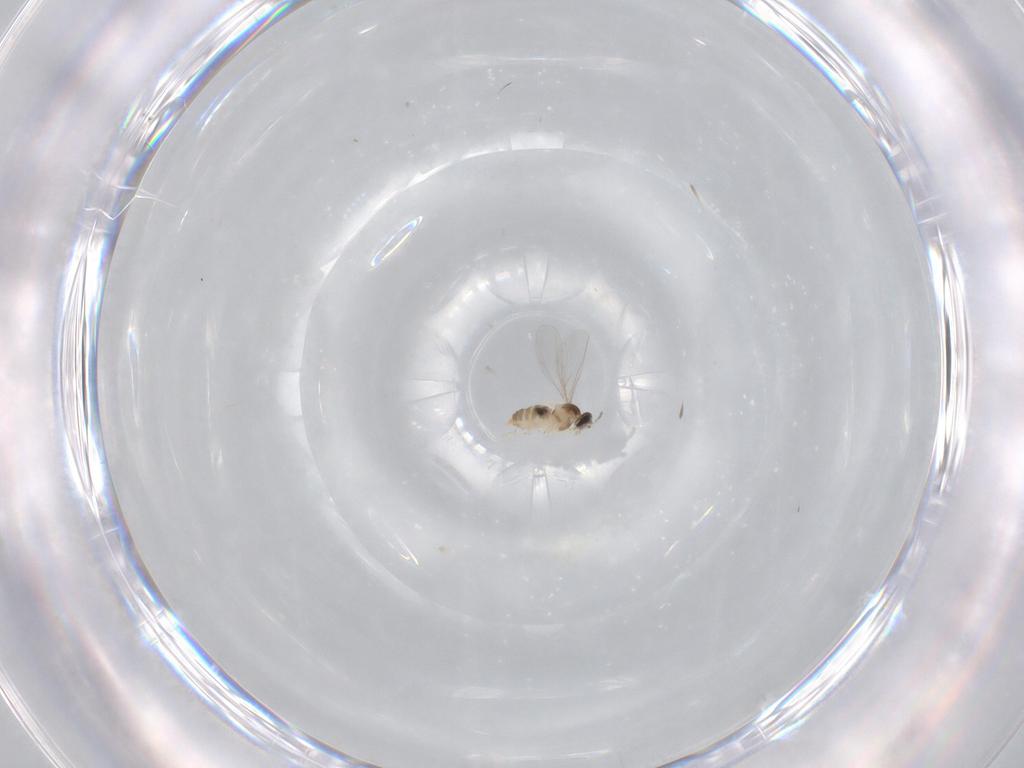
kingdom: Animalia
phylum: Arthropoda
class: Insecta
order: Diptera
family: Cecidomyiidae
